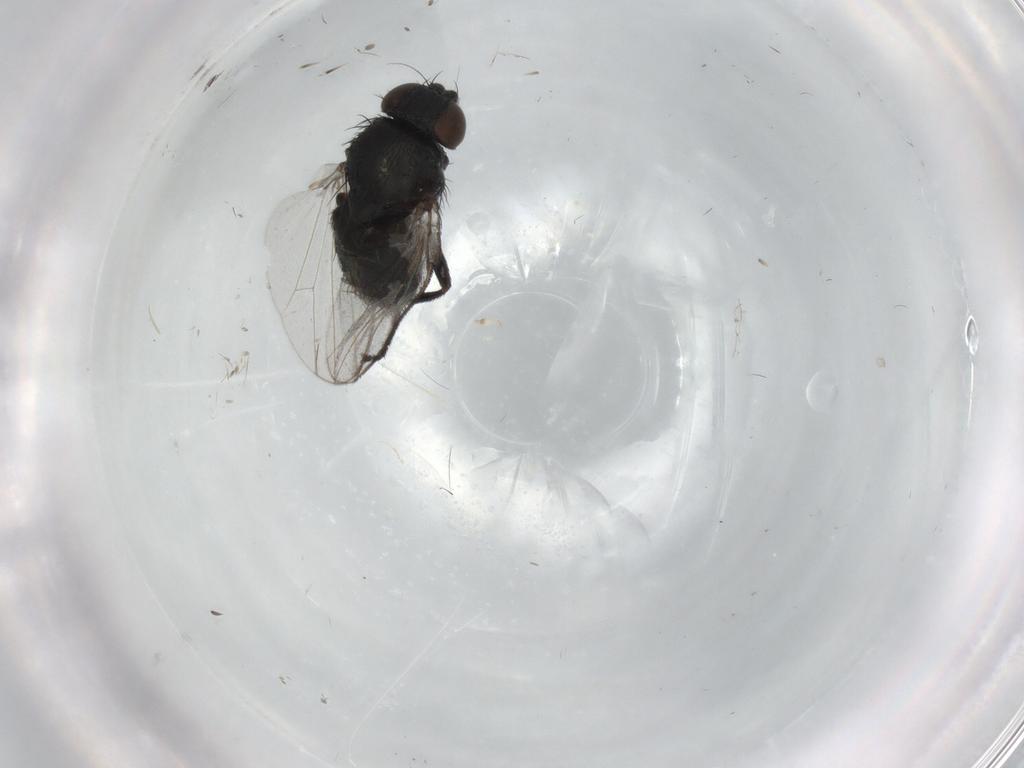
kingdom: Animalia
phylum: Arthropoda
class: Insecta
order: Diptera
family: Milichiidae
